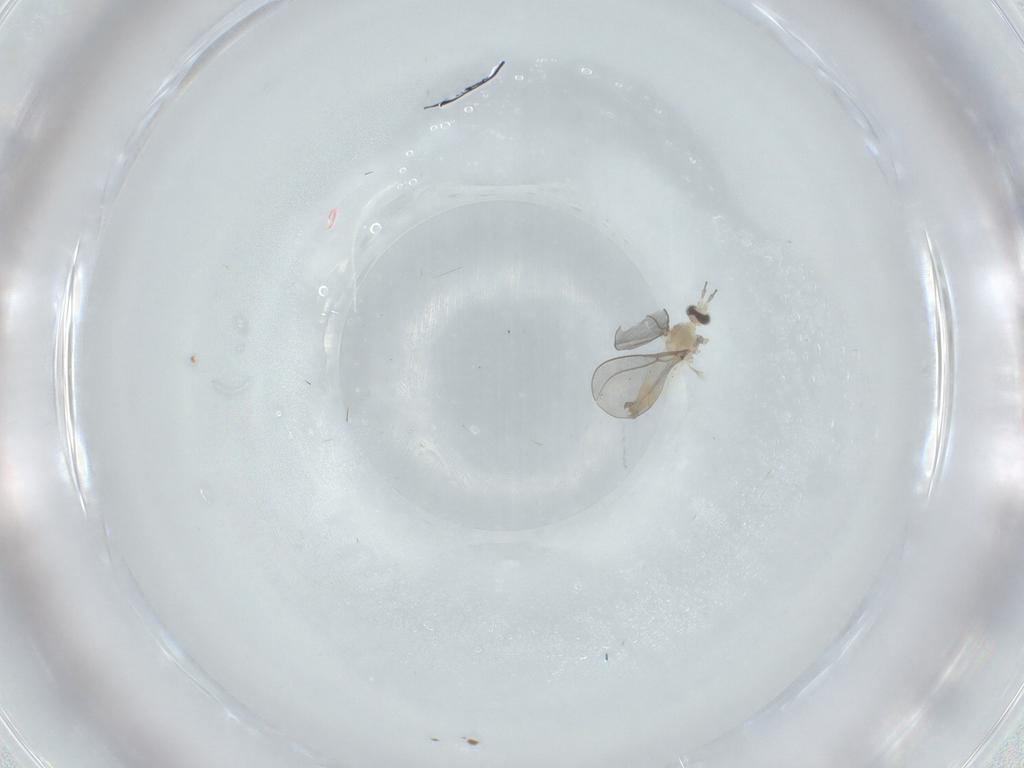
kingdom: Animalia
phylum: Arthropoda
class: Insecta
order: Diptera
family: Cecidomyiidae
